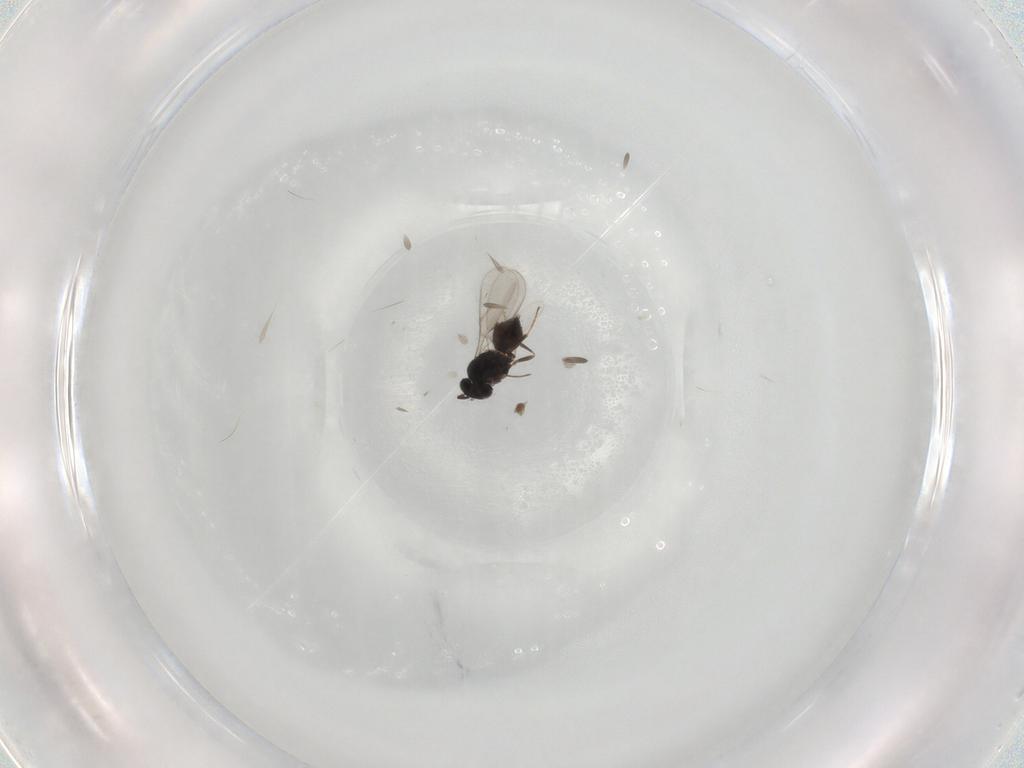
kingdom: Animalia
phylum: Arthropoda
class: Insecta
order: Hymenoptera
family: Scelionidae
